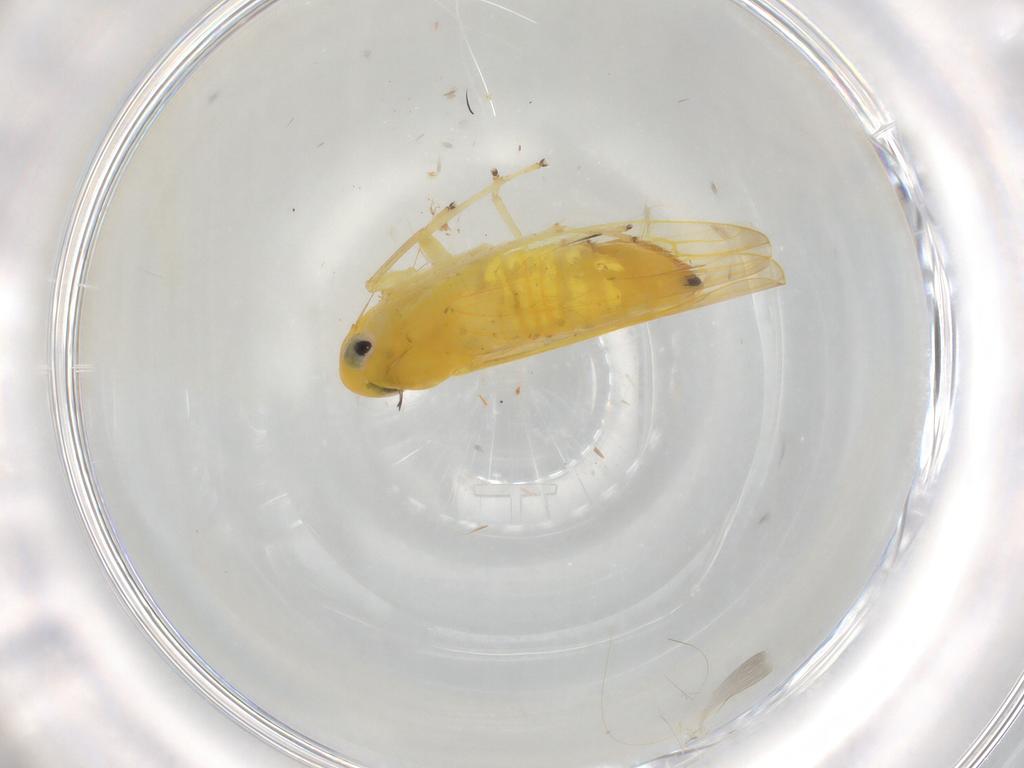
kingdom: Animalia
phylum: Arthropoda
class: Insecta
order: Hemiptera
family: Cicadellidae
